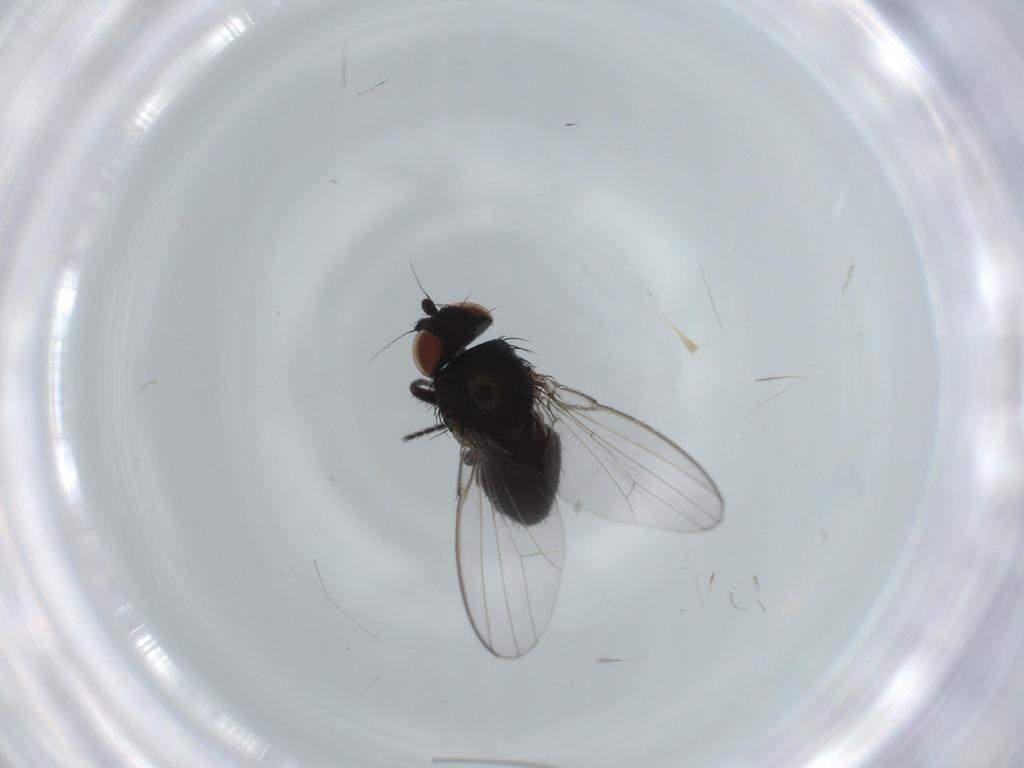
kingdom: Animalia
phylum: Arthropoda
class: Insecta
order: Diptera
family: Milichiidae
